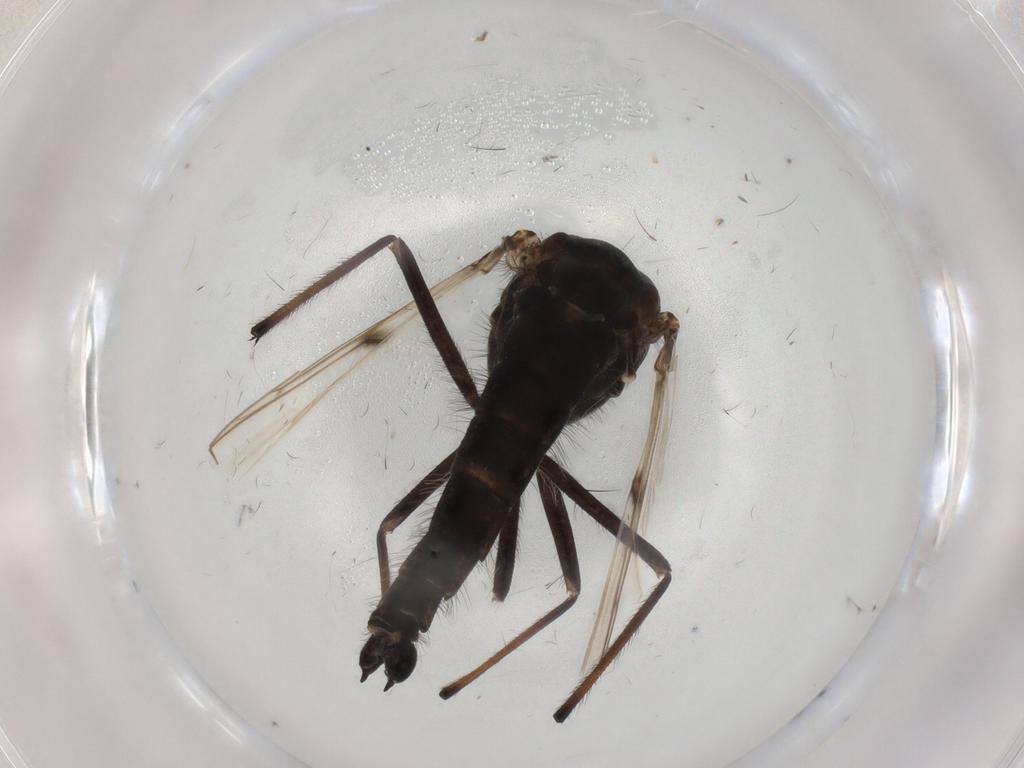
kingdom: Animalia
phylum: Arthropoda
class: Insecta
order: Diptera
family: Chironomidae
